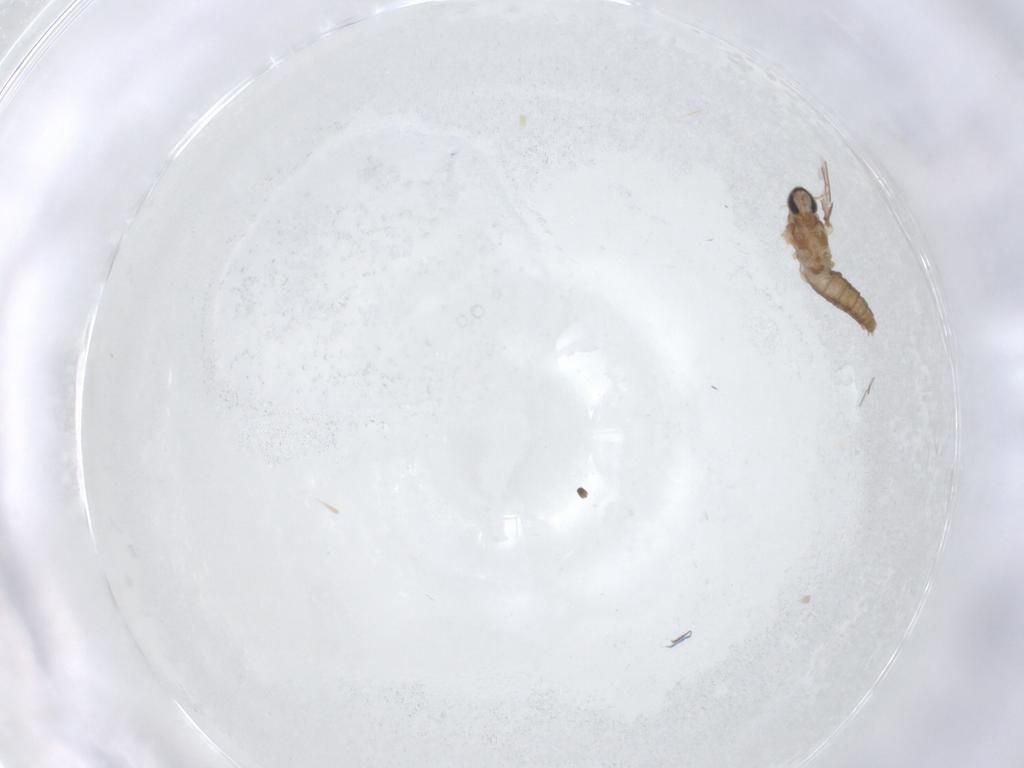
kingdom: Animalia
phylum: Arthropoda
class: Insecta
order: Diptera
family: Cecidomyiidae
